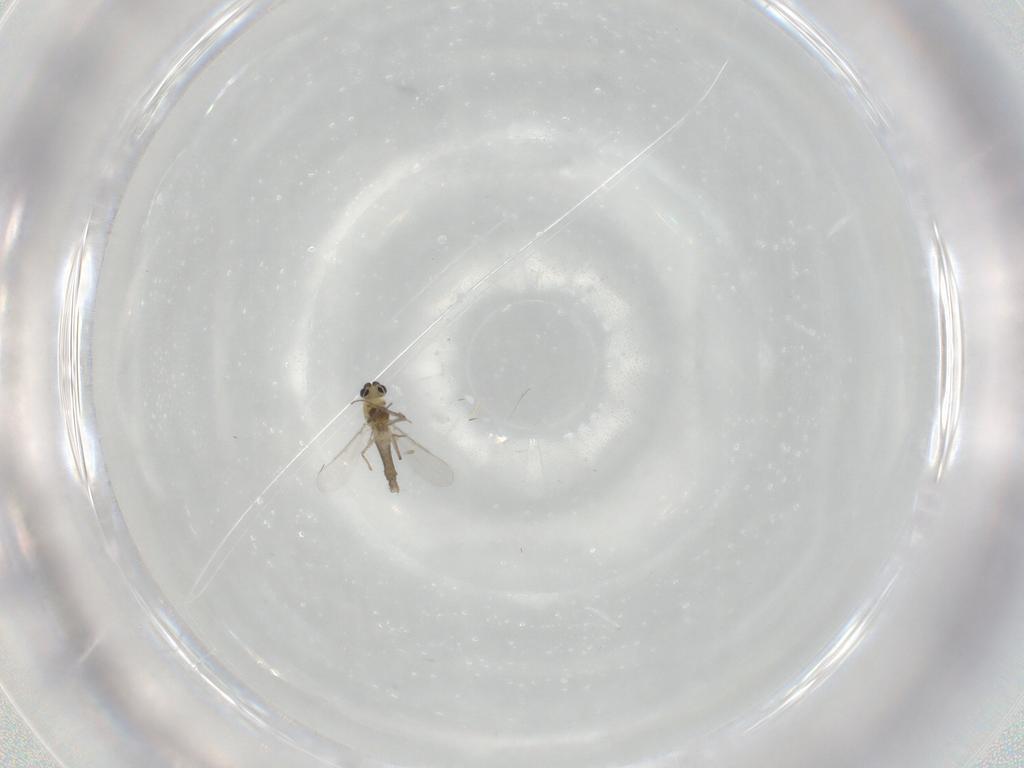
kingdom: Animalia
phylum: Arthropoda
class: Insecta
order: Diptera
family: Chironomidae
